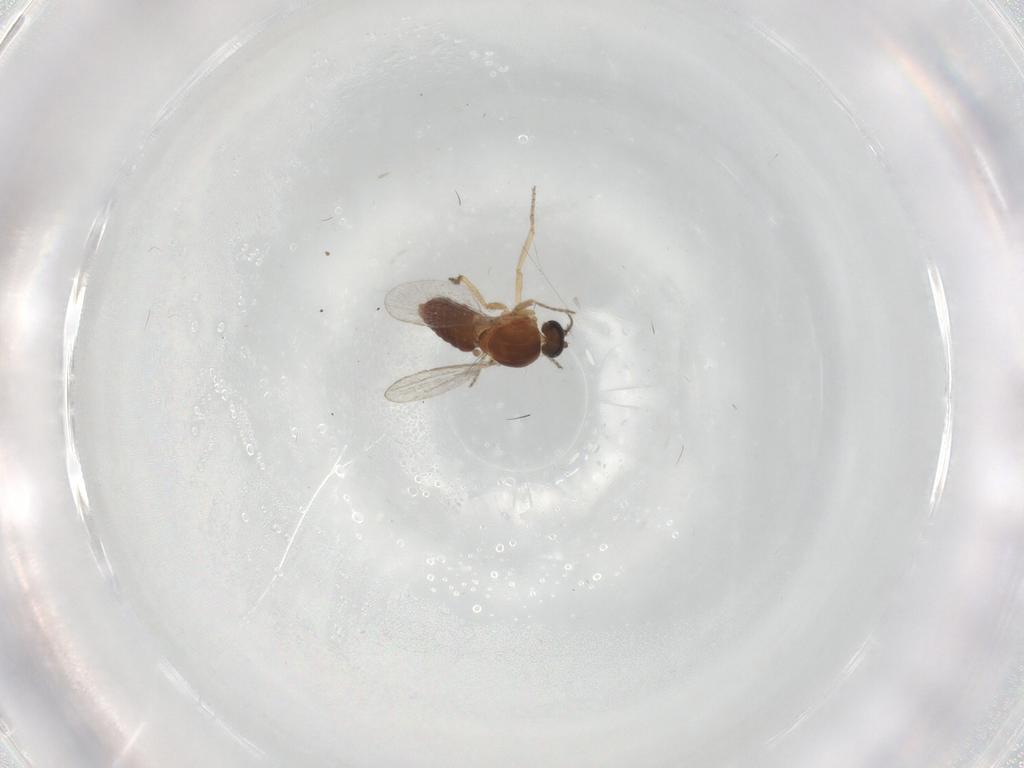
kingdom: Animalia
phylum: Arthropoda
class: Insecta
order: Diptera
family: Ceratopogonidae
